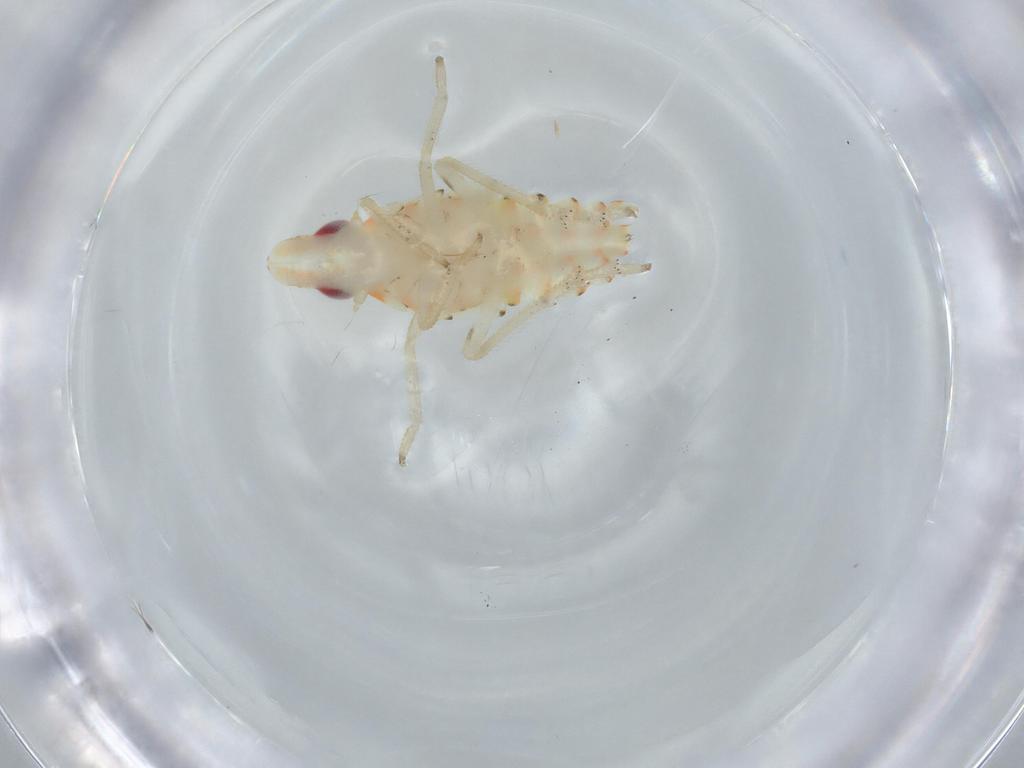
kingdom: Animalia
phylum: Arthropoda
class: Insecta
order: Hemiptera
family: Tropiduchidae
